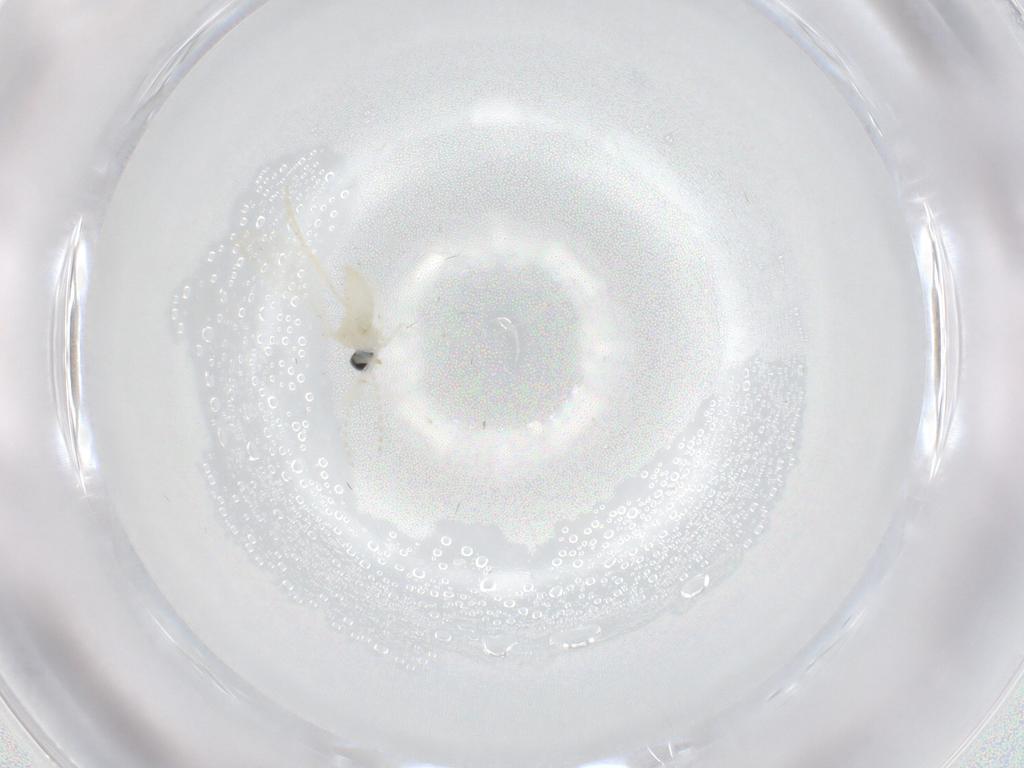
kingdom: Animalia
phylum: Arthropoda
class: Insecta
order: Diptera
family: Cecidomyiidae
